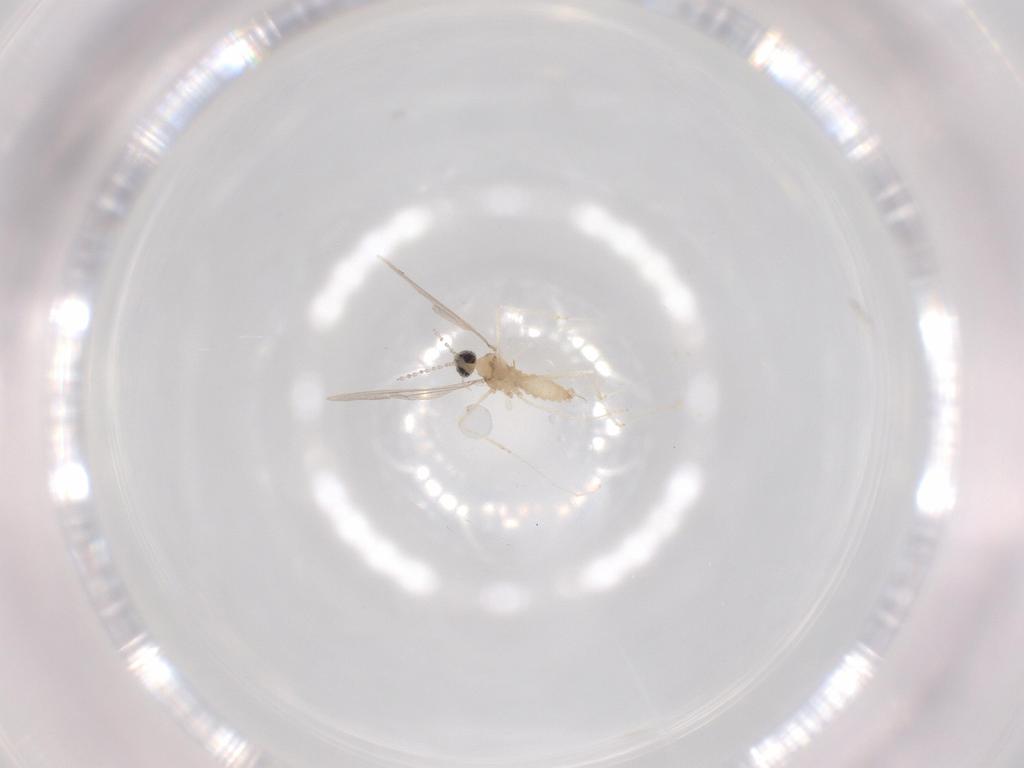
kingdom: Animalia
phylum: Arthropoda
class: Insecta
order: Diptera
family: Cecidomyiidae
